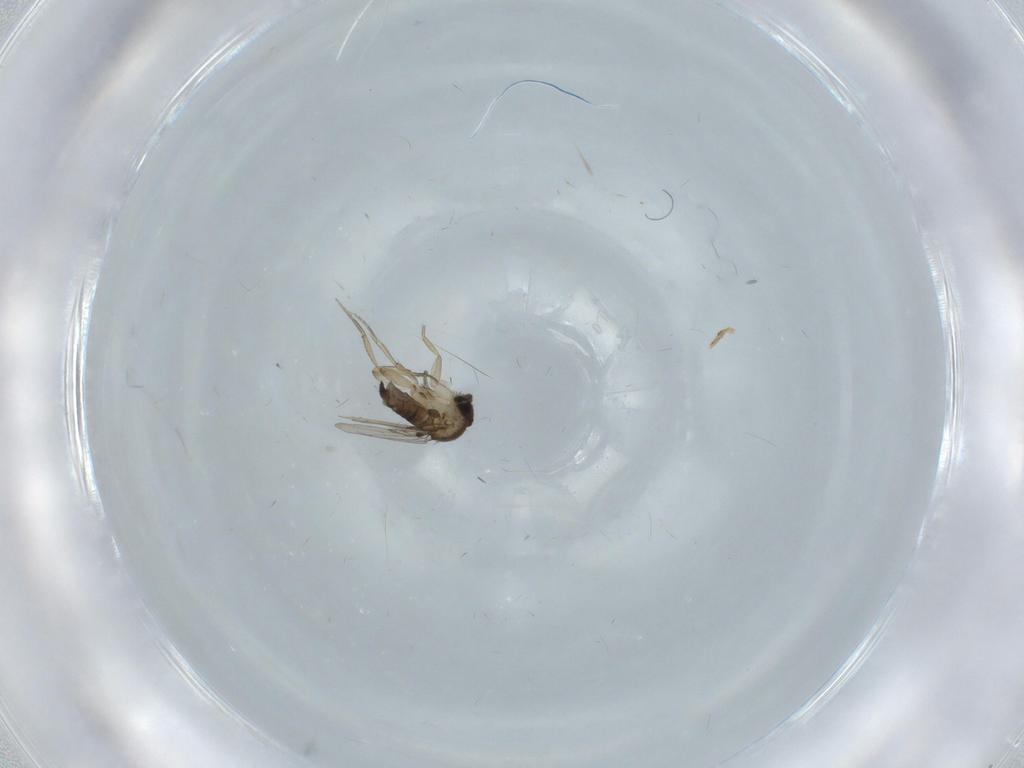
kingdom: Animalia
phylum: Arthropoda
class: Insecta
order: Diptera
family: Phoridae
